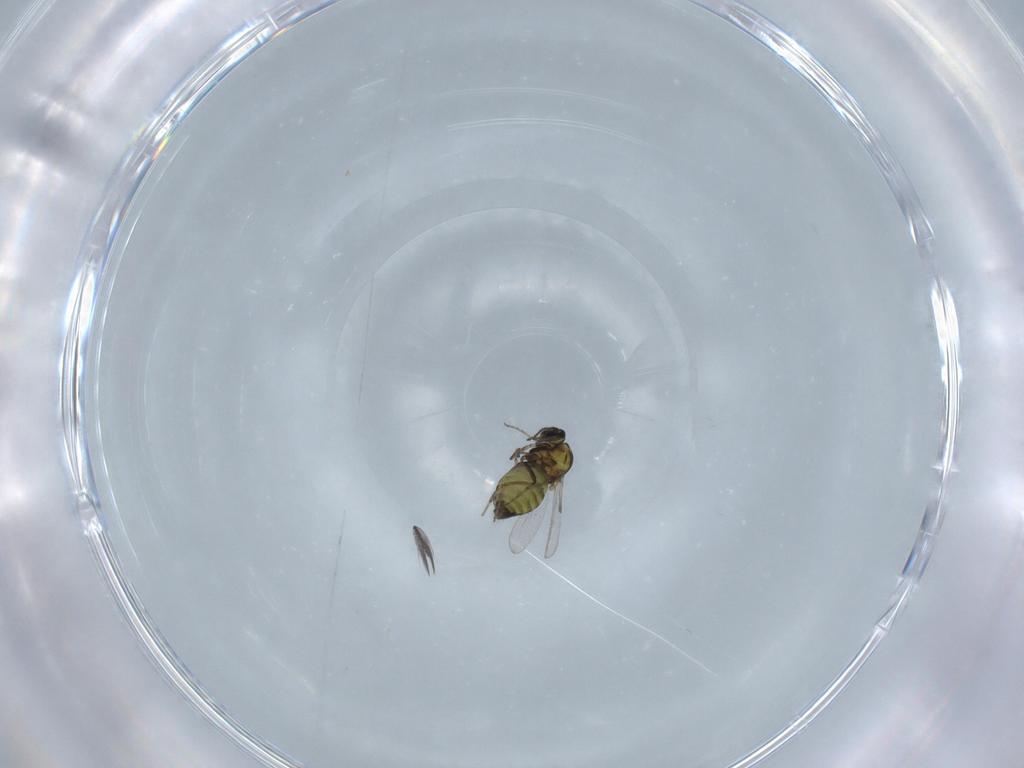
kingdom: Animalia
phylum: Arthropoda
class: Insecta
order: Diptera
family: Ceratopogonidae
